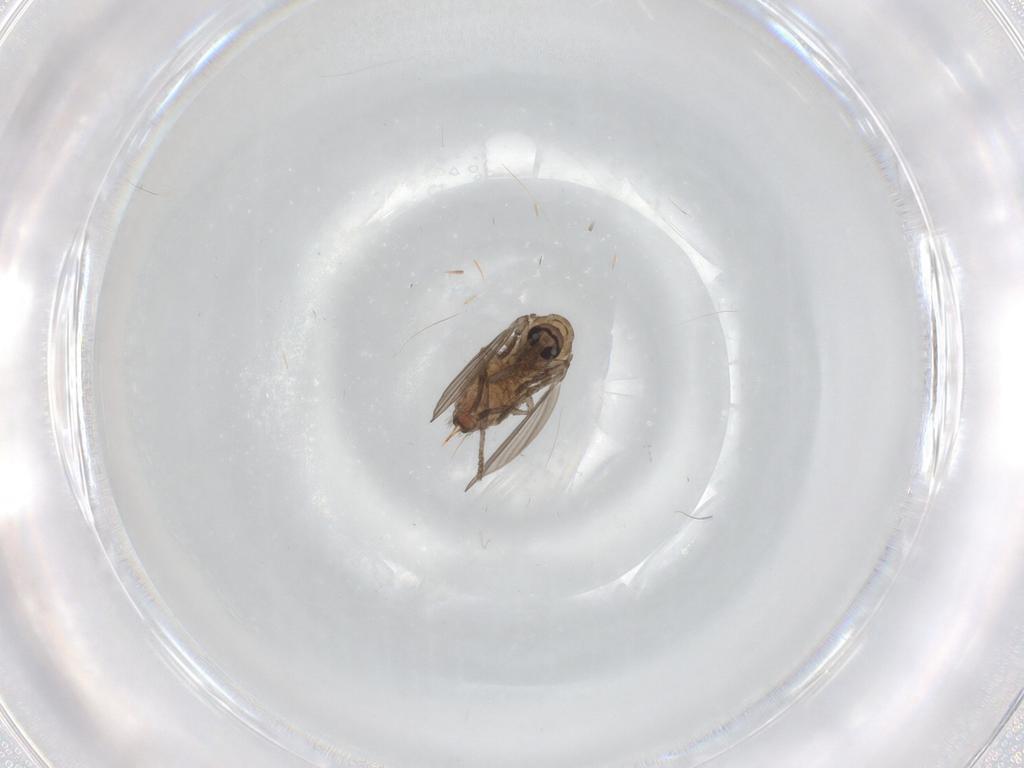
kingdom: Animalia
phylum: Arthropoda
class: Insecta
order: Diptera
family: Psychodidae
